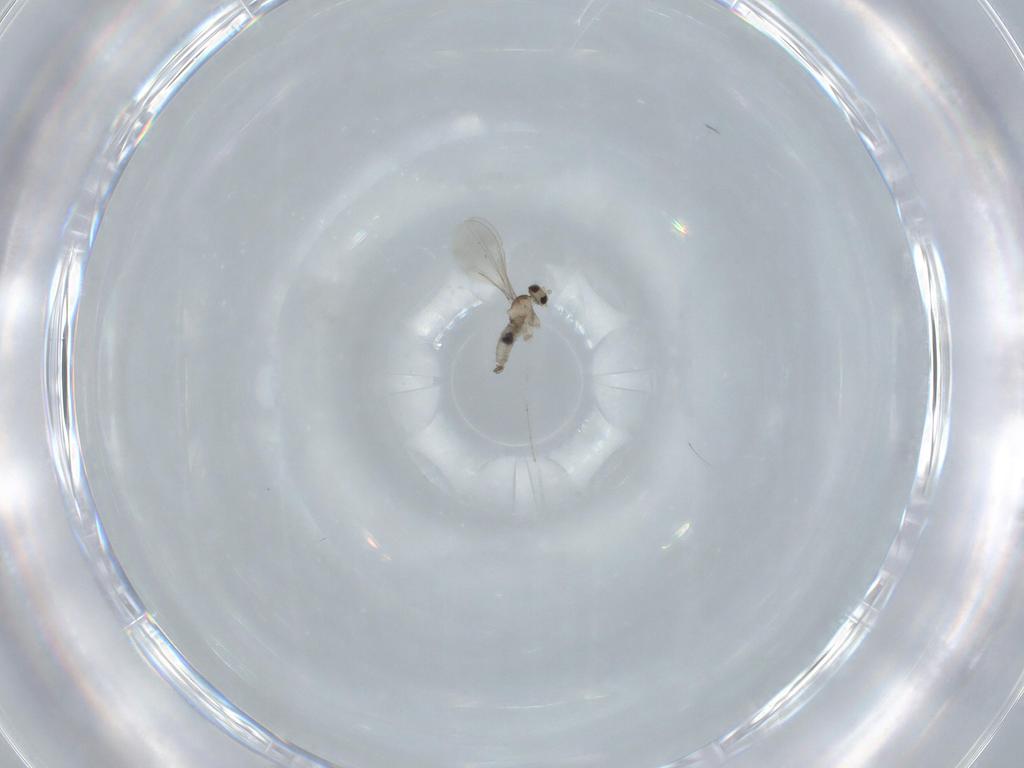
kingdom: Animalia
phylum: Arthropoda
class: Insecta
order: Diptera
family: Cecidomyiidae
